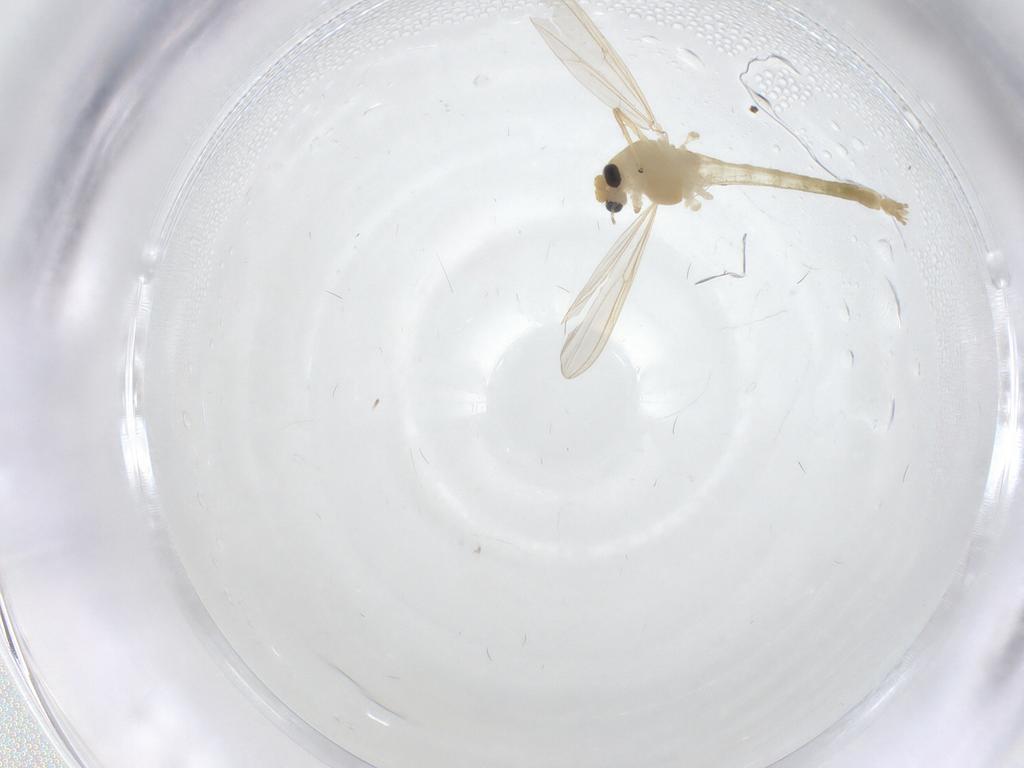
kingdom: Animalia
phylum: Arthropoda
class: Insecta
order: Diptera
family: Chironomidae
